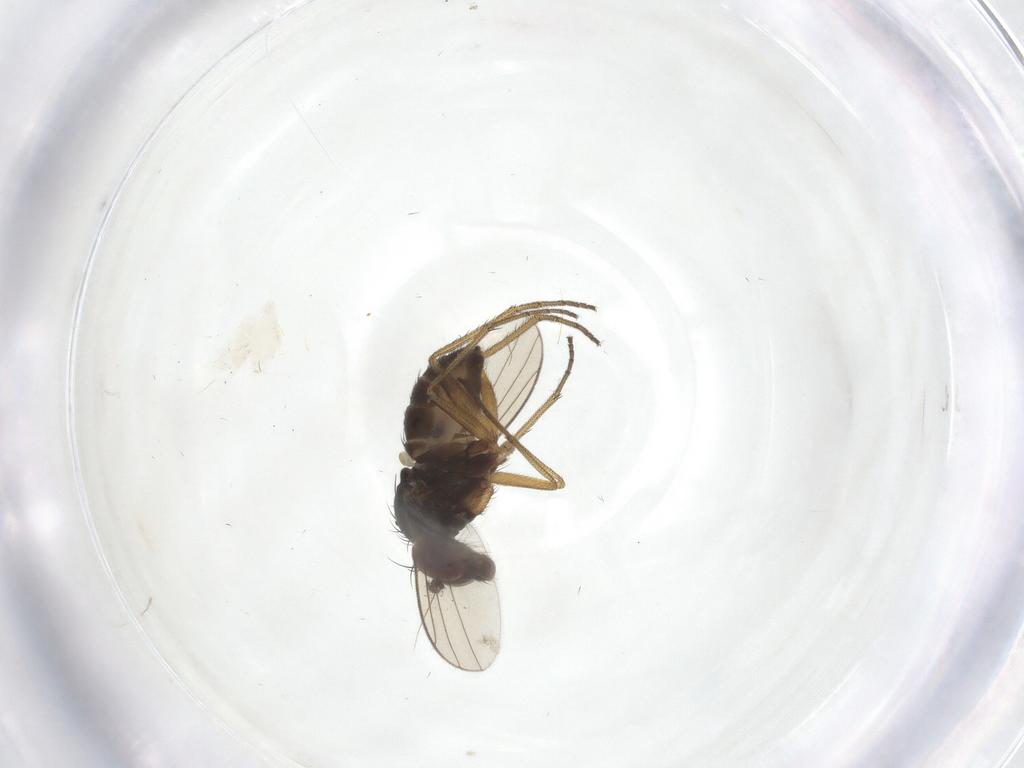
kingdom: Animalia
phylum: Arthropoda
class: Insecta
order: Diptera
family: Dolichopodidae
